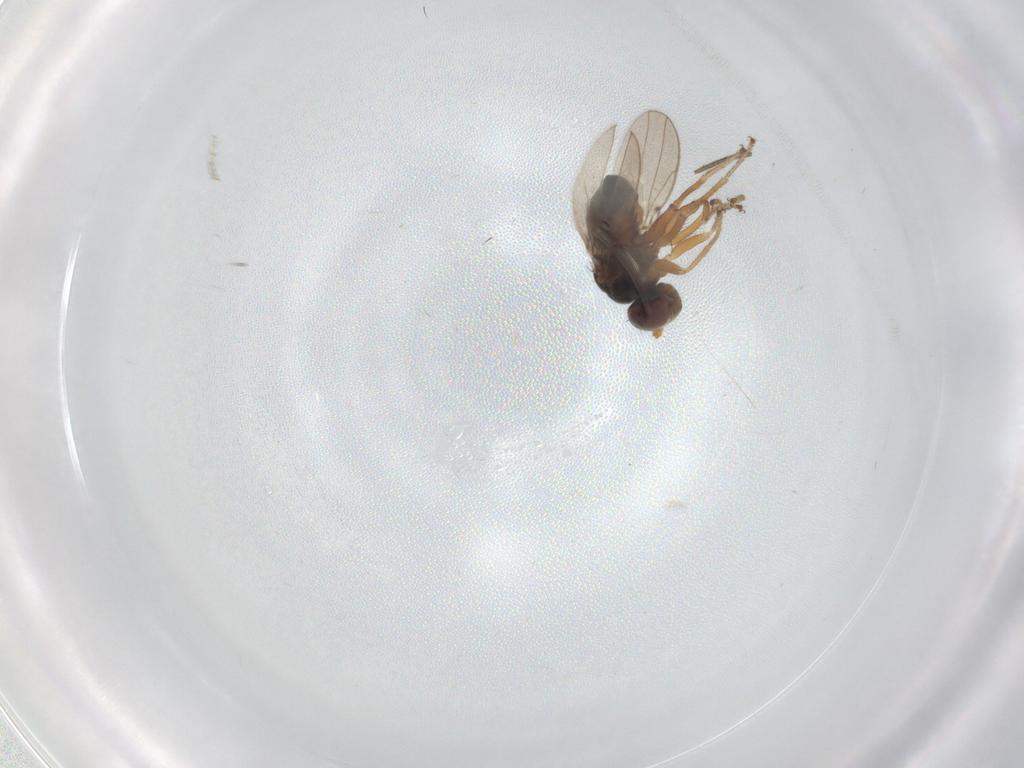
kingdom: Animalia
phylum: Arthropoda
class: Insecta
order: Diptera
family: Ephydridae
